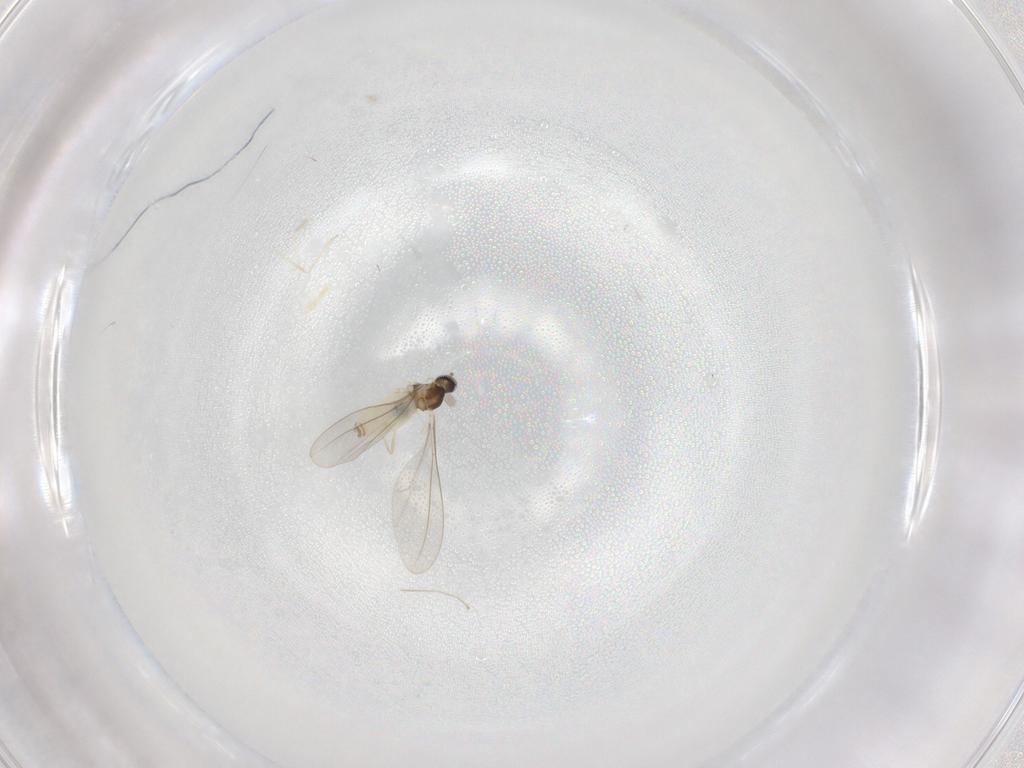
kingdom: Animalia
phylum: Arthropoda
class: Insecta
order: Diptera
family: Cecidomyiidae
